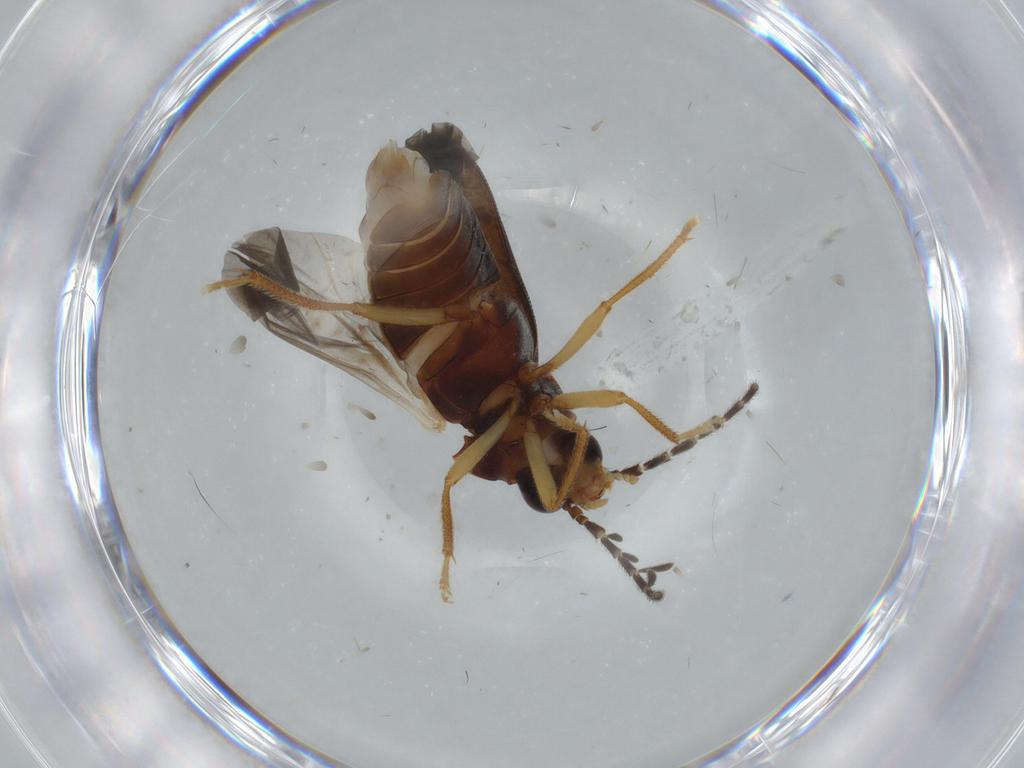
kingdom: Animalia
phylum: Arthropoda
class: Insecta
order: Coleoptera
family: Ptilodactylidae
